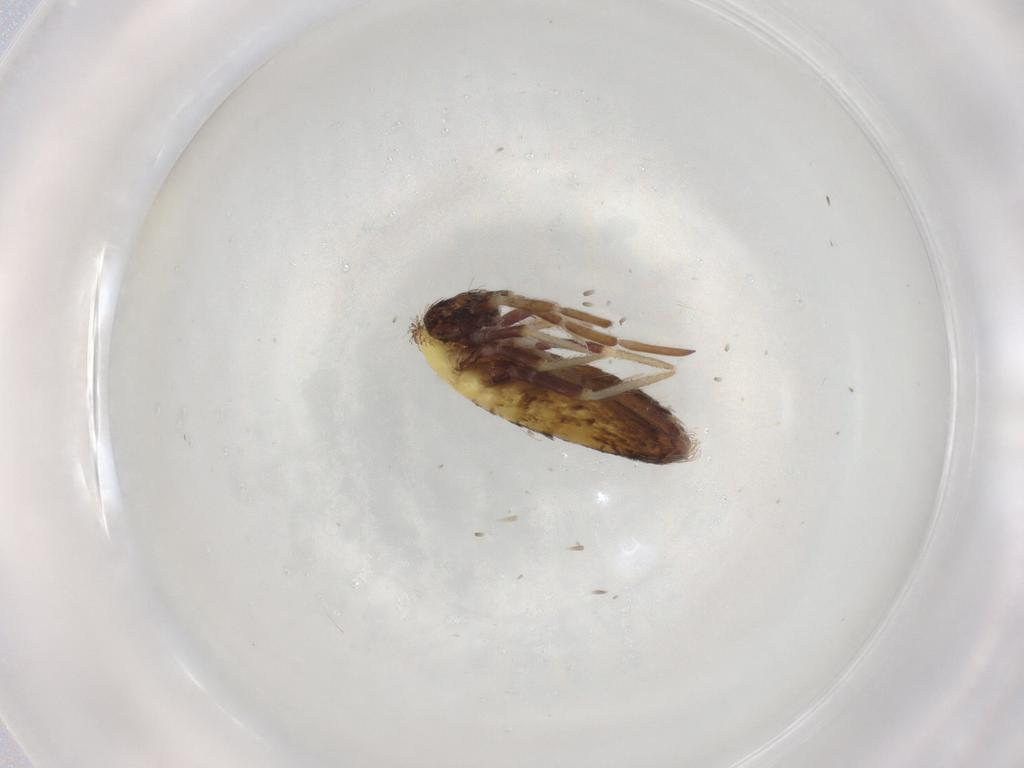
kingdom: Animalia
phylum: Arthropoda
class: Collembola
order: Entomobryomorpha
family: Entomobryidae
